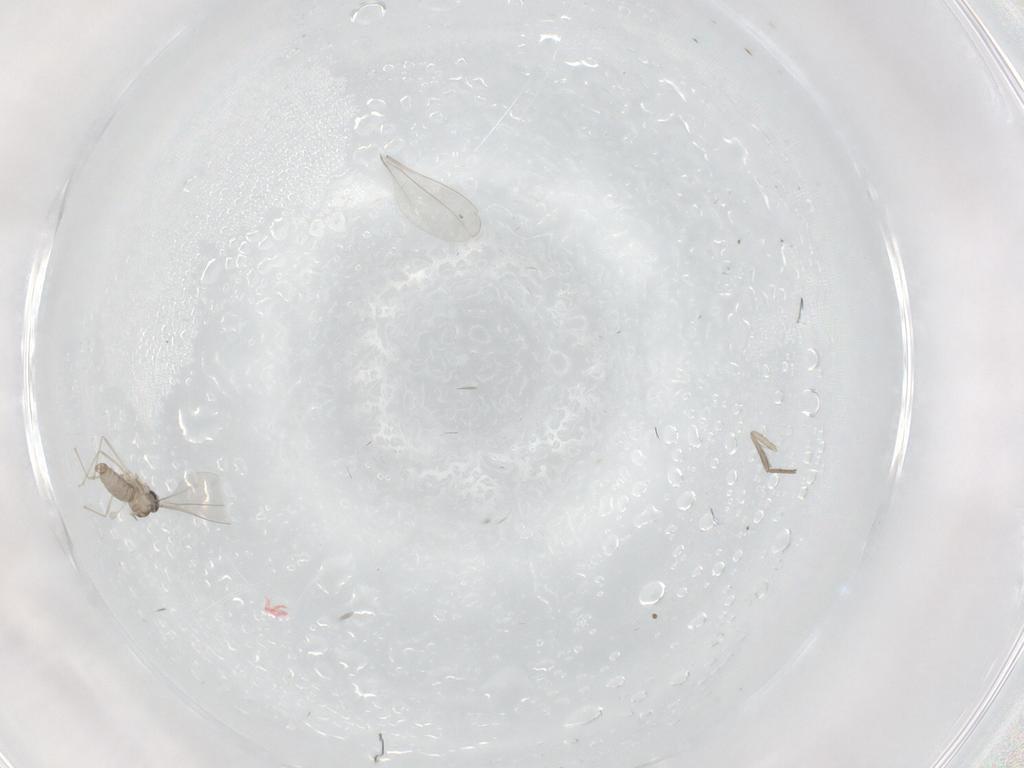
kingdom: Animalia
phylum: Arthropoda
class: Insecta
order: Diptera
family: Psychodidae
